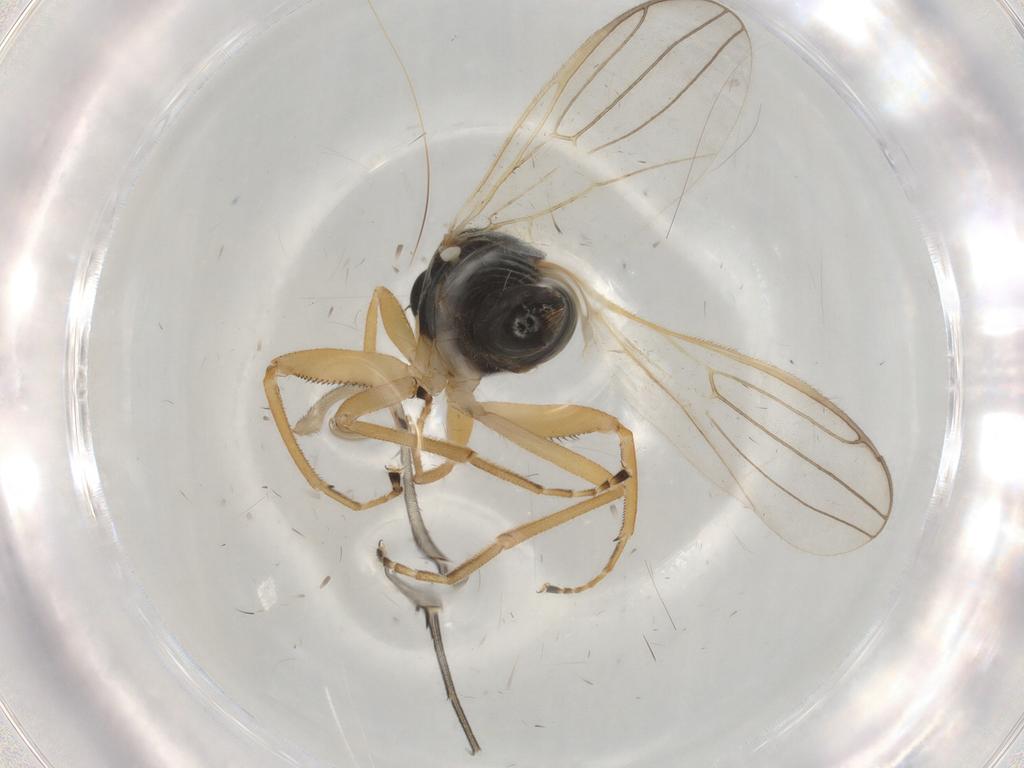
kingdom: Animalia
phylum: Arthropoda
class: Insecta
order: Diptera
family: Keroplatidae
